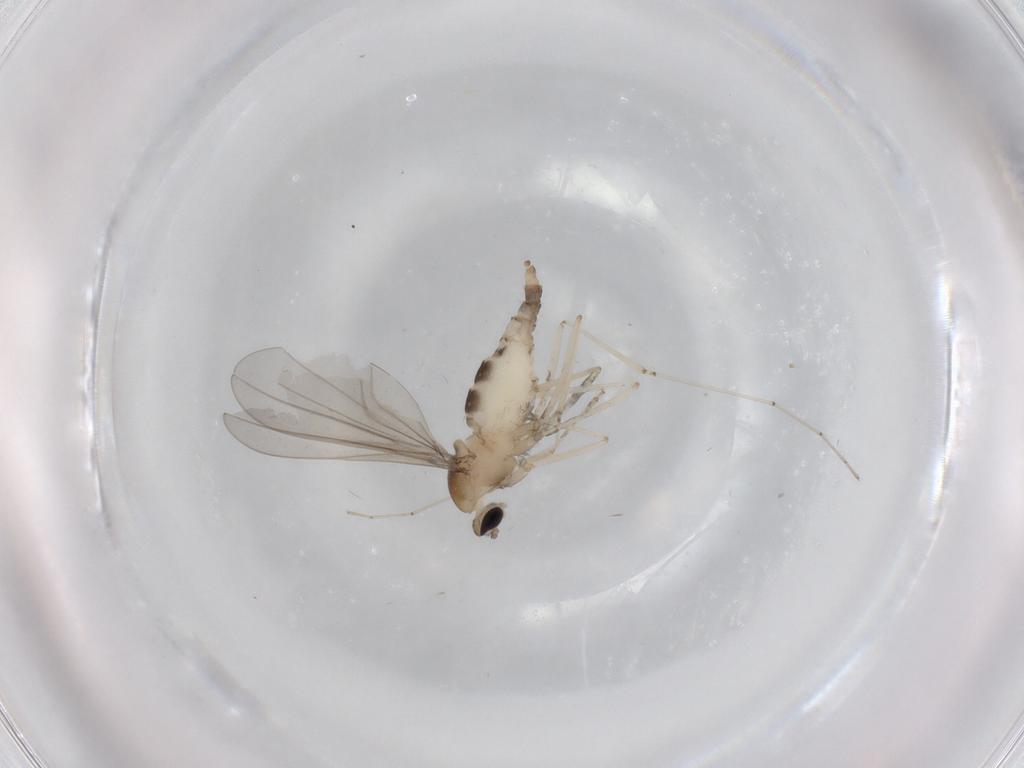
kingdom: Animalia
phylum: Arthropoda
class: Insecta
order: Diptera
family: Cecidomyiidae
